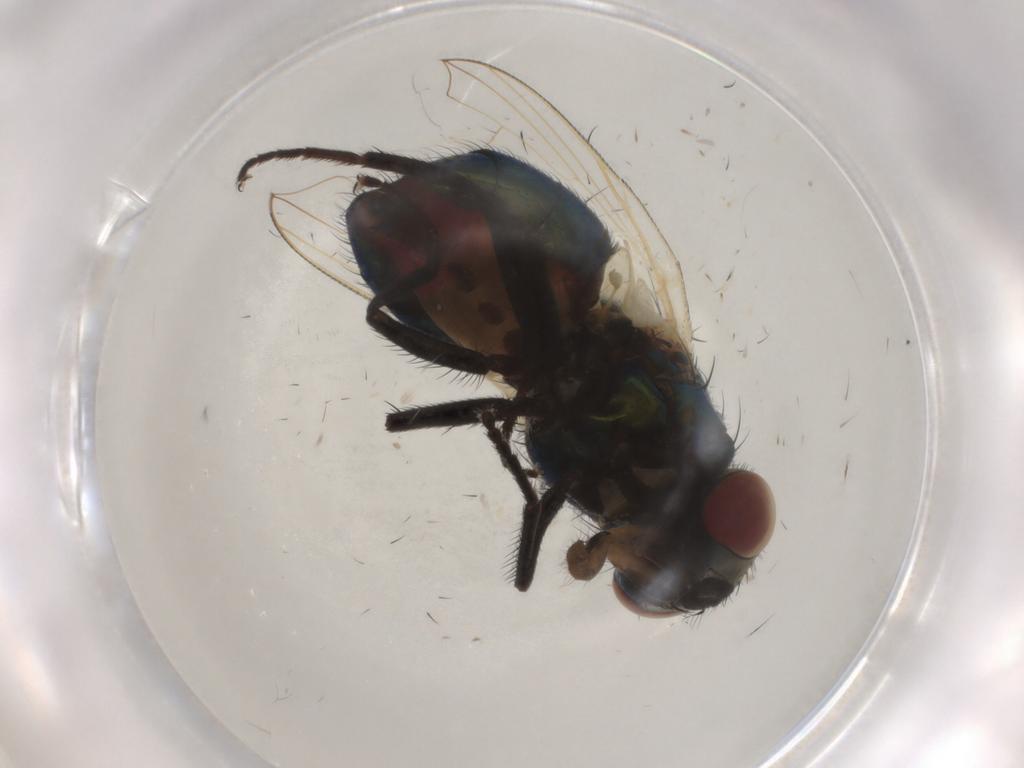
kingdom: Animalia
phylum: Arthropoda
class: Insecta
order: Diptera
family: Muscidae
